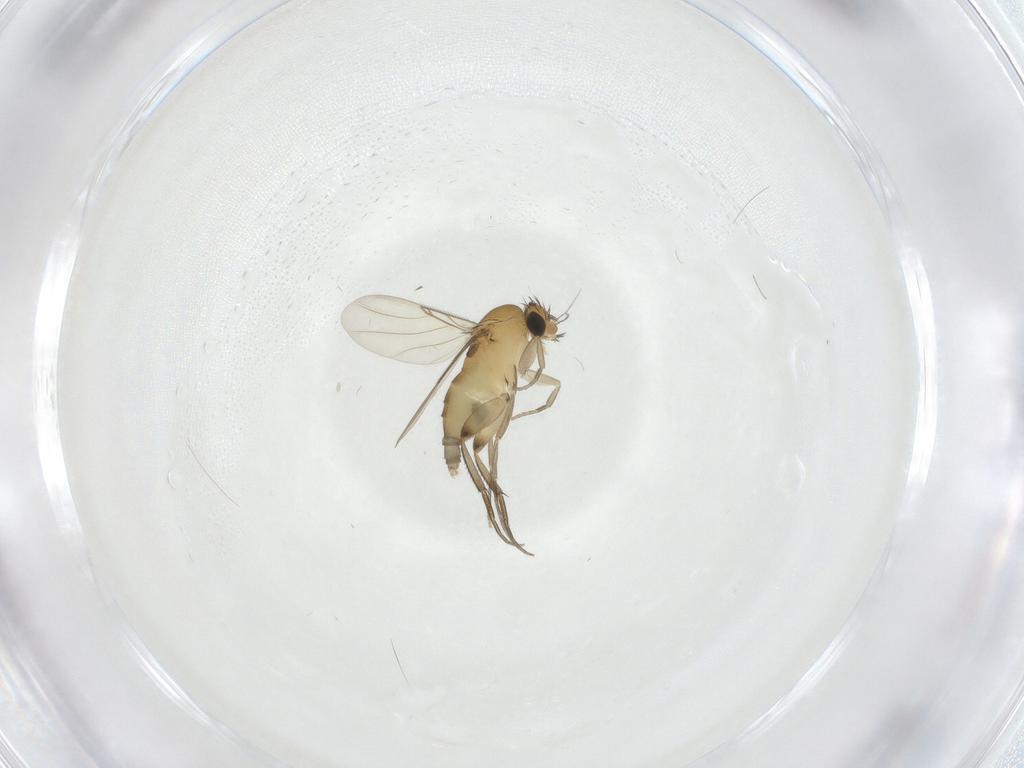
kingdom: Animalia
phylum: Arthropoda
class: Insecta
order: Diptera
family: Phoridae
